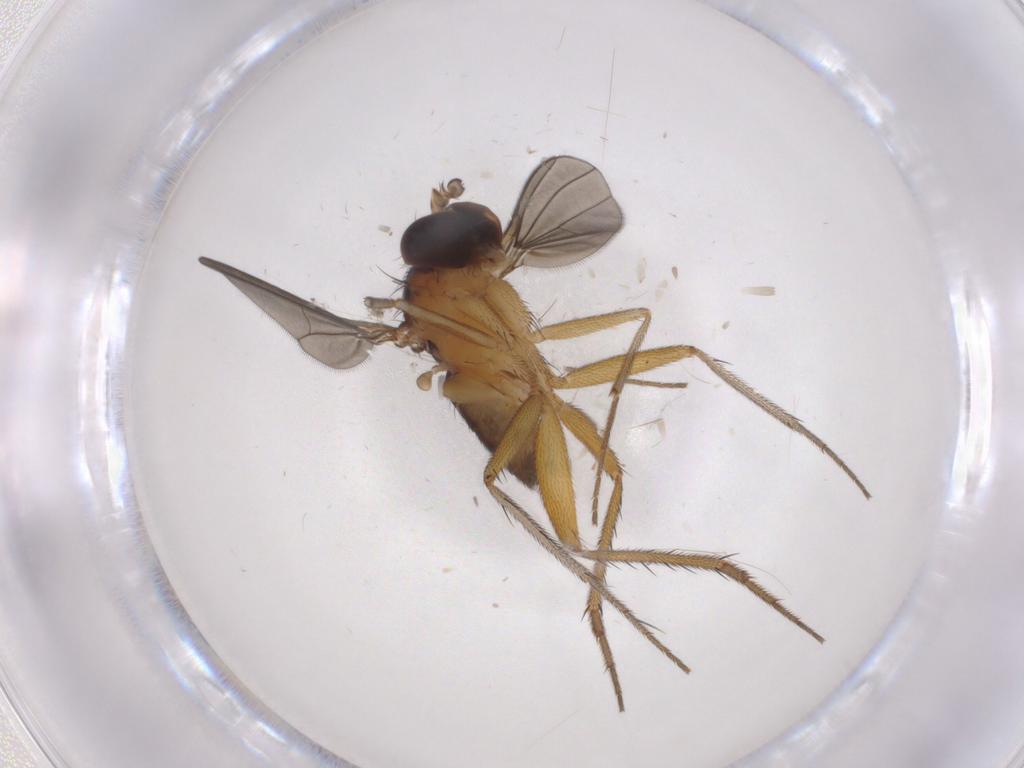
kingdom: Animalia
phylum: Arthropoda
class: Insecta
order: Diptera
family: Dolichopodidae
